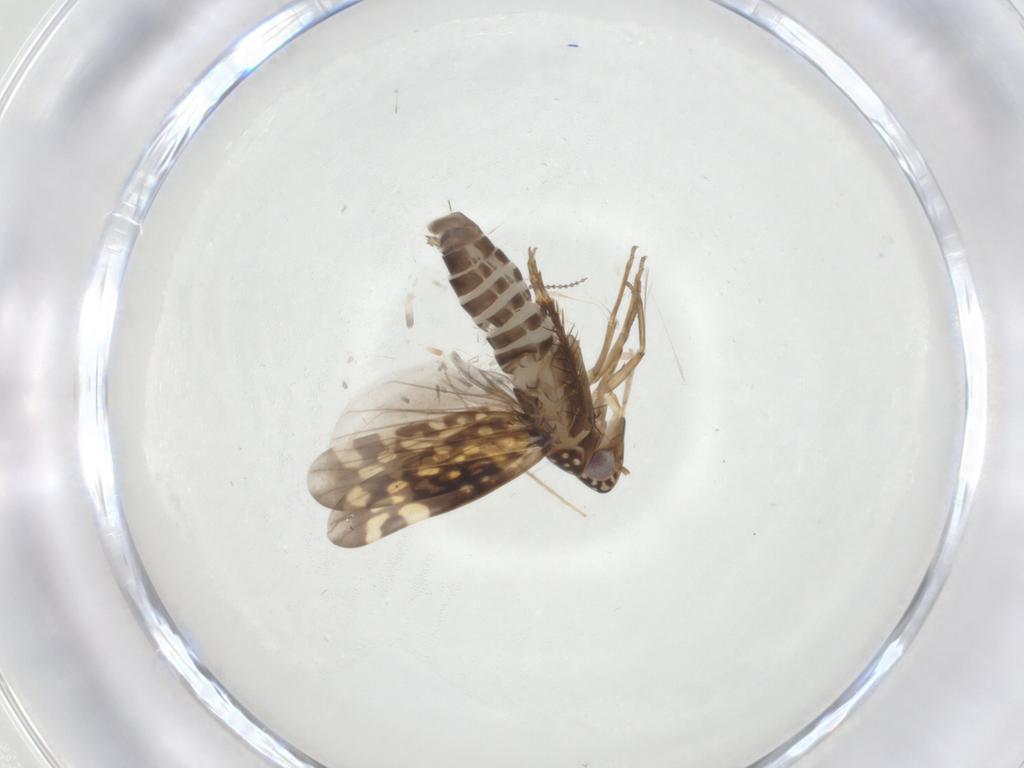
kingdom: Animalia
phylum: Arthropoda
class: Insecta
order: Hemiptera
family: Cicadellidae
